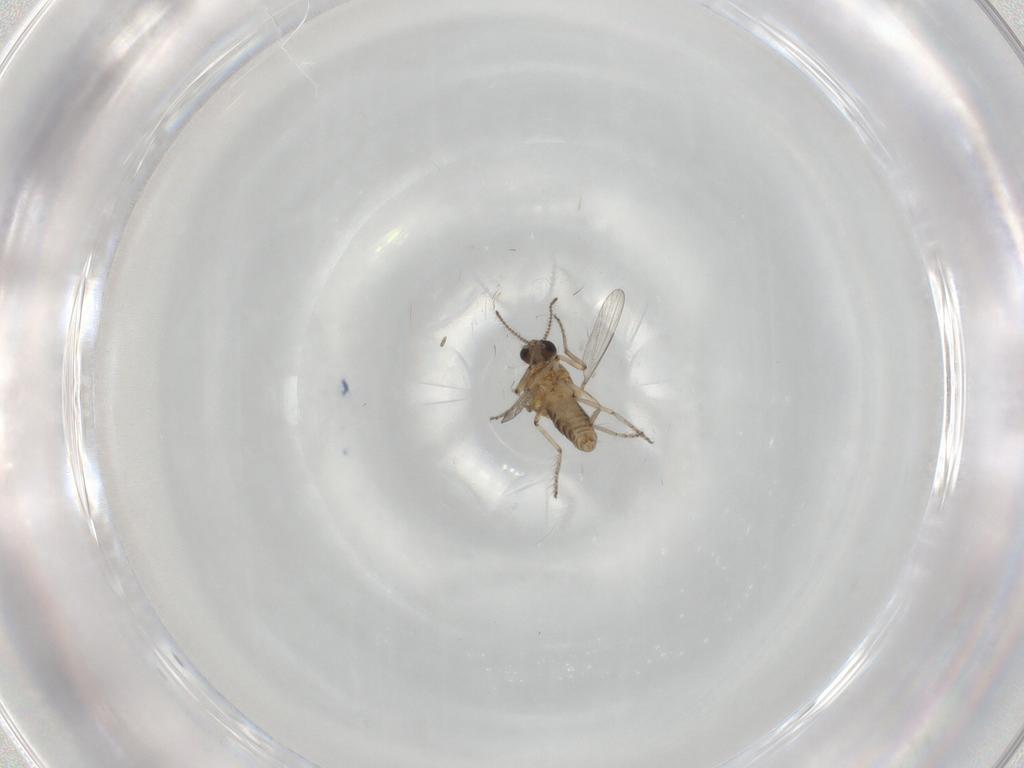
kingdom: Animalia
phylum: Arthropoda
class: Insecta
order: Diptera
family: Ceratopogonidae
